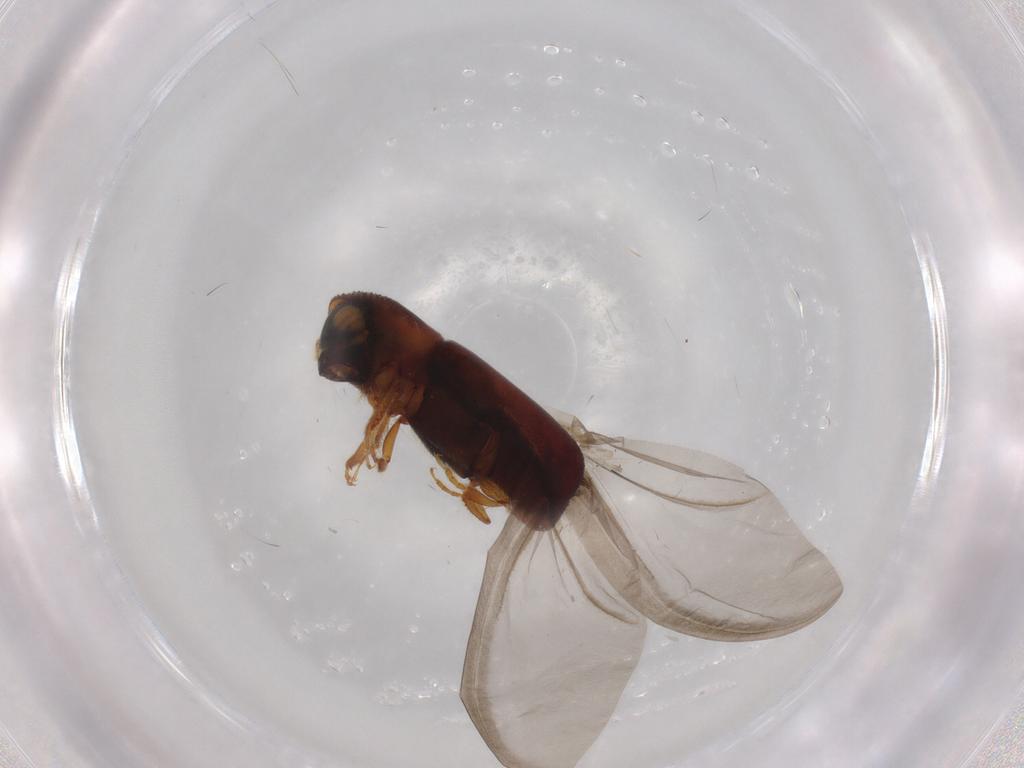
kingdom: Animalia
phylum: Arthropoda
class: Insecta
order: Coleoptera
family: Curculionidae
